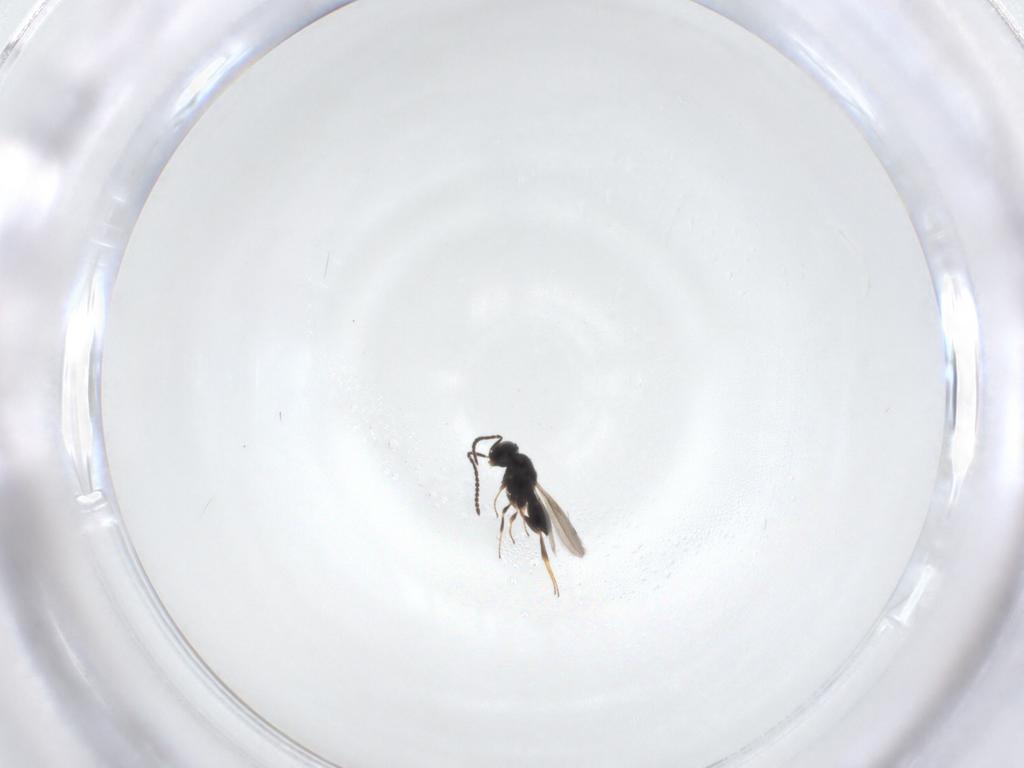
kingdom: Animalia
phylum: Arthropoda
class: Insecta
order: Hymenoptera
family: Scelionidae
